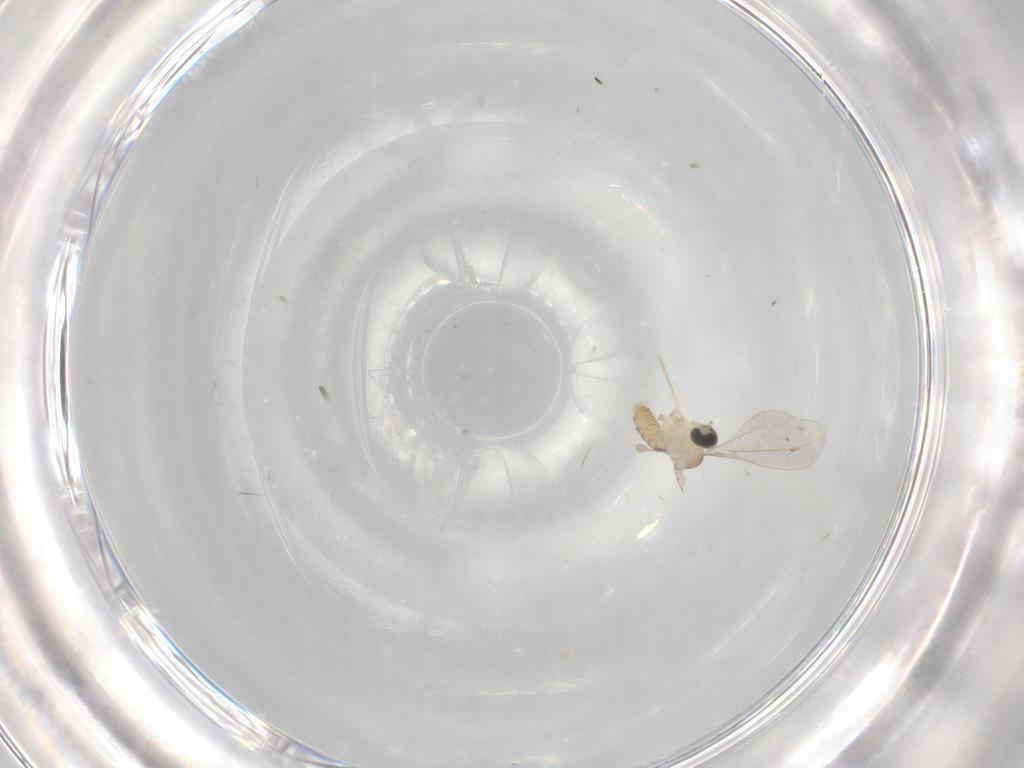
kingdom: Animalia
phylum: Arthropoda
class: Insecta
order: Diptera
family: Cecidomyiidae
